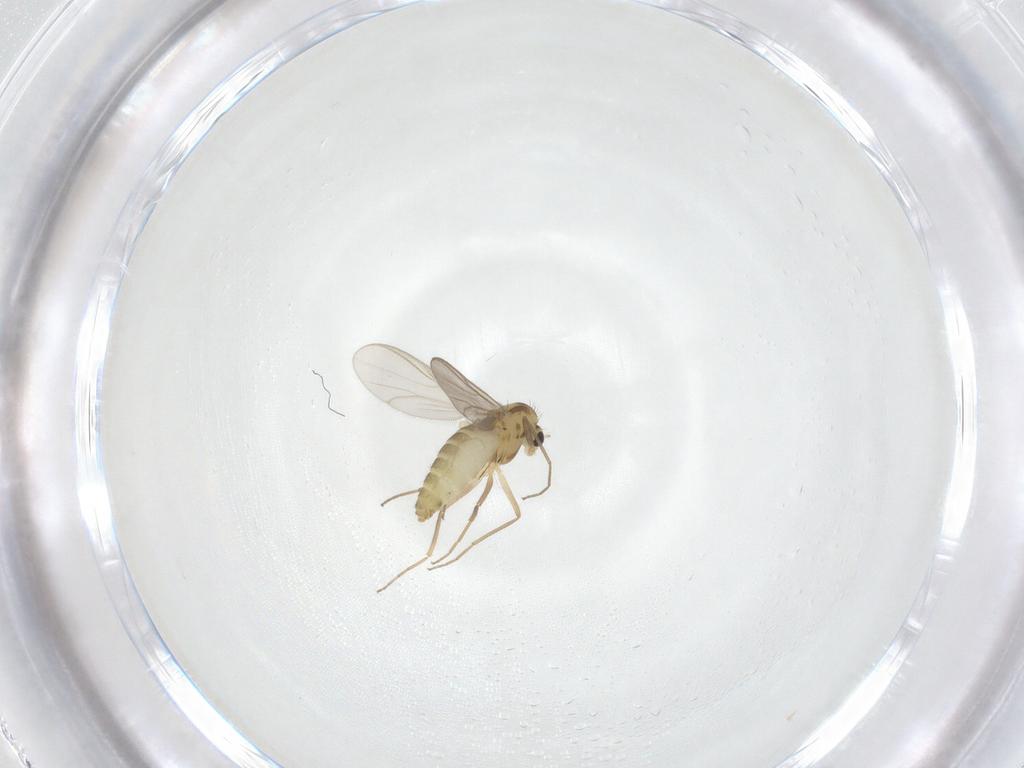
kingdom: Animalia
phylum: Arthropoda
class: Insecta
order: Diptera
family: Chironomidae
